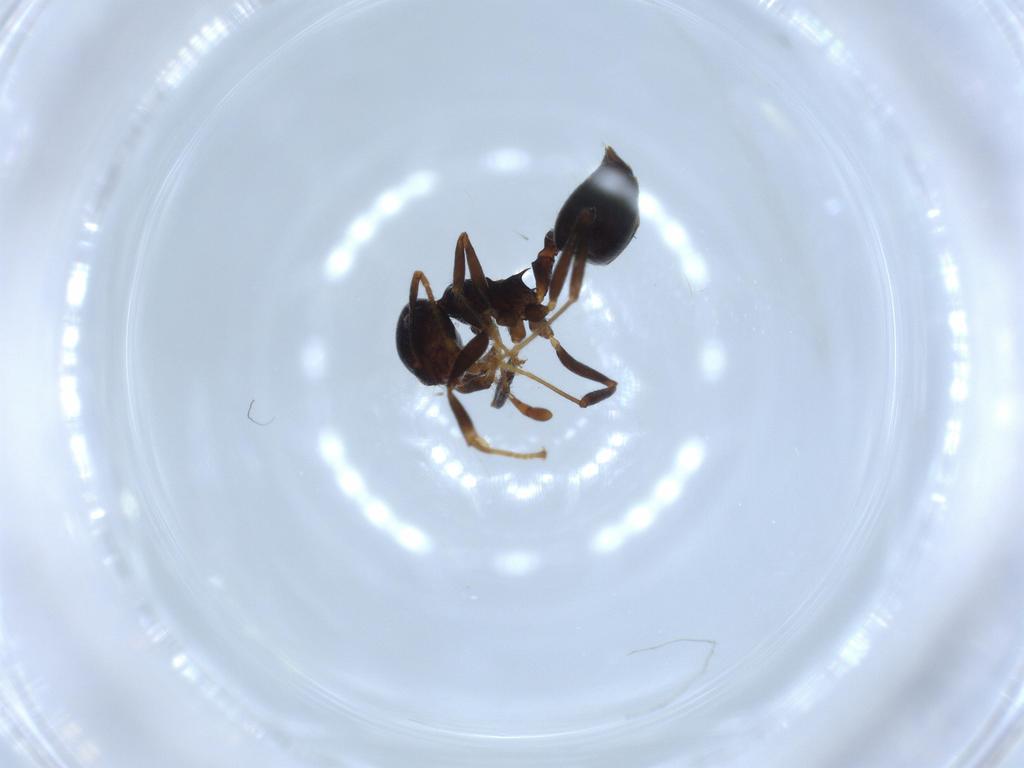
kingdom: Animalia
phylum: Arthropoda
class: Insecta
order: Hymenoptera
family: Formicidae
